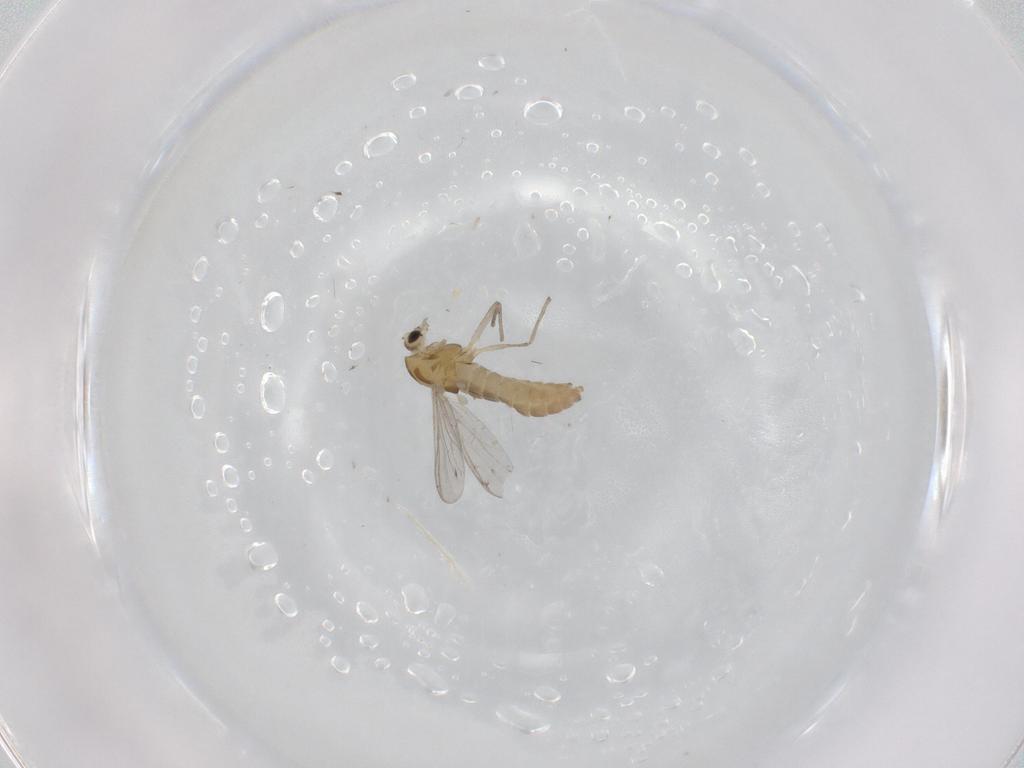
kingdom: Animalia
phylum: Arthropoda
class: Insecta
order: Diptera
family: Chironomidae
